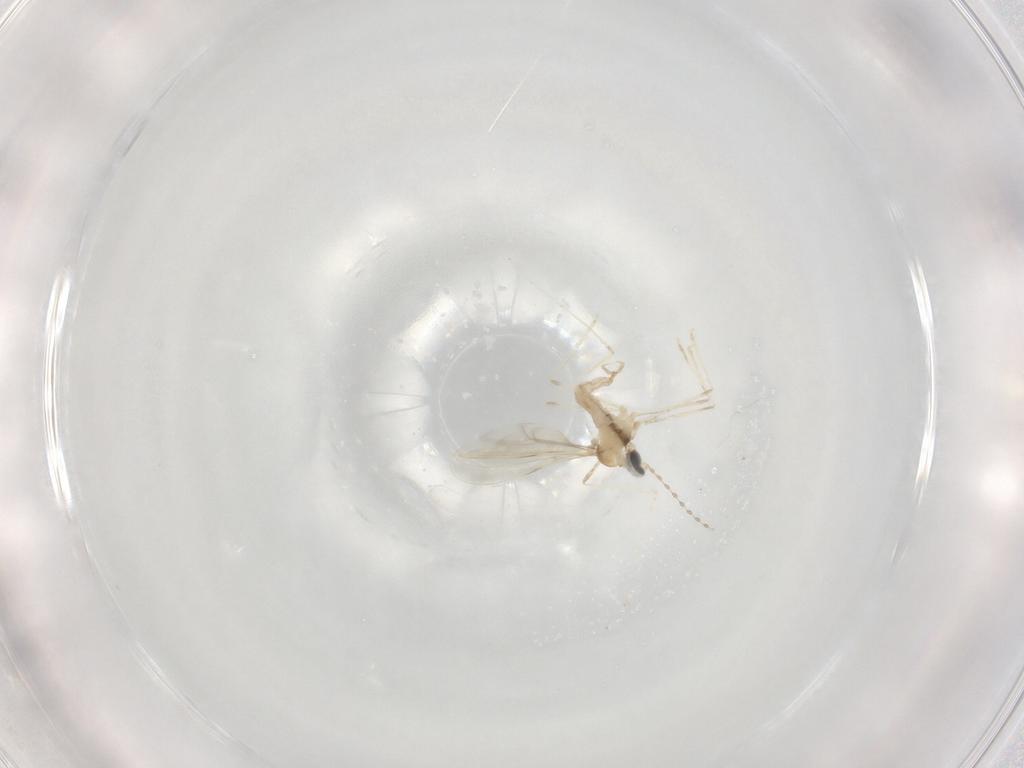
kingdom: Animalia
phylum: Arthropoda
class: Insecta
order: Diptera
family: Cecidomyiidae
